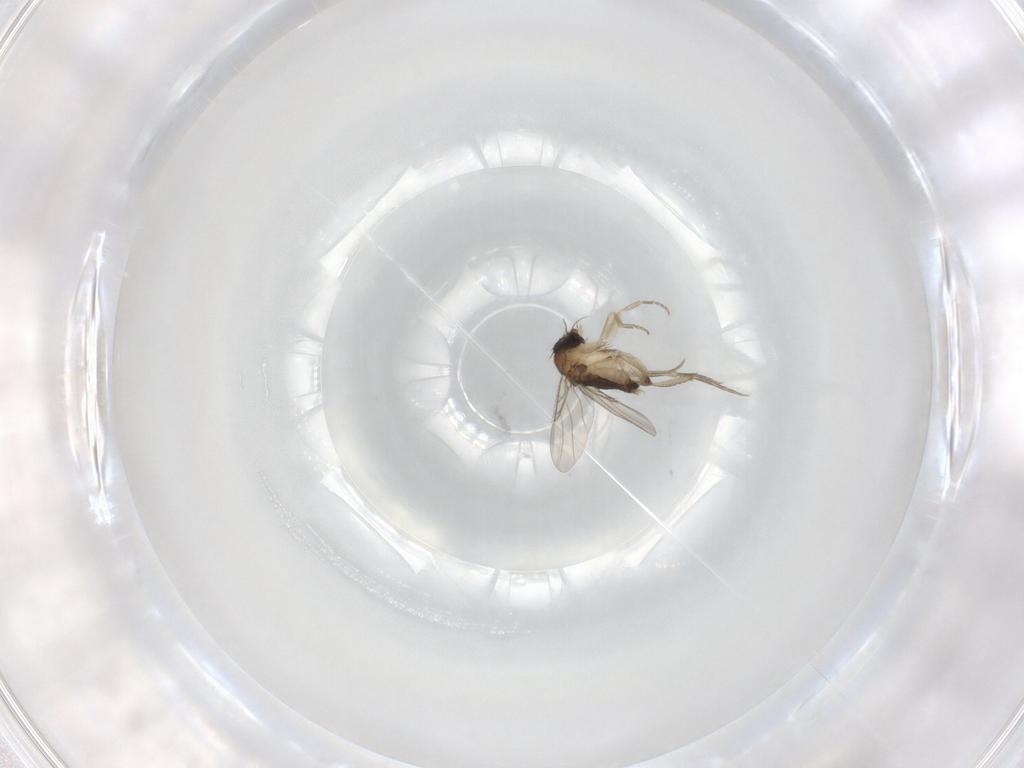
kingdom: Animalia
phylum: Arthropoda
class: Insecta
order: Diptera
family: Phoridae
